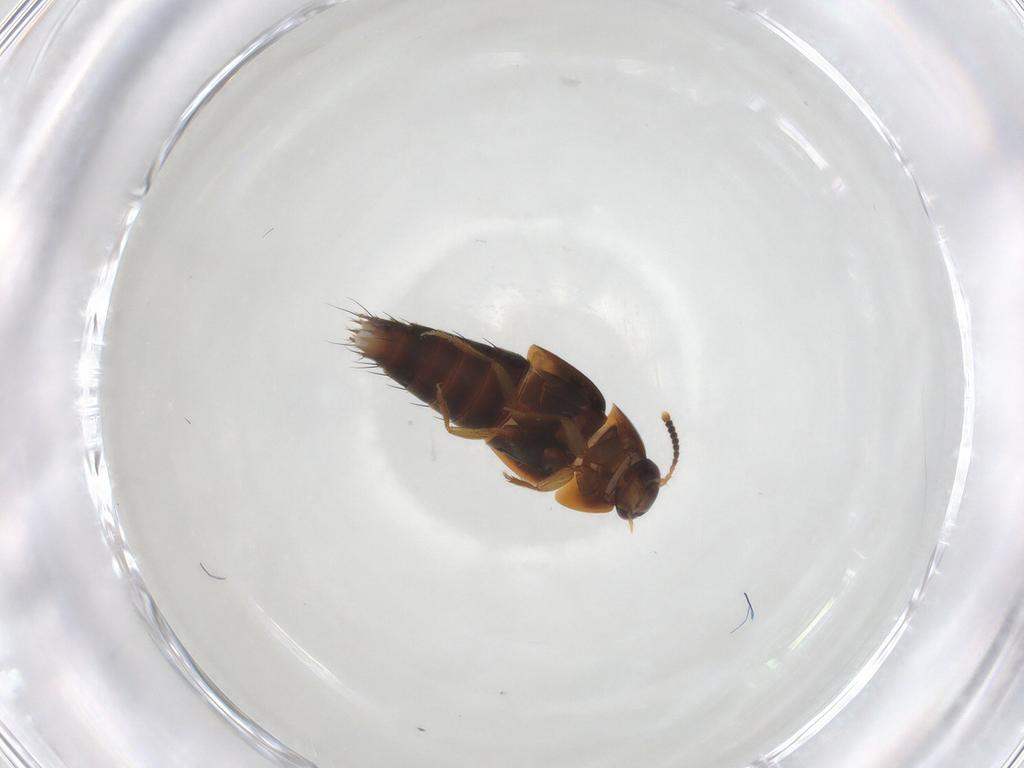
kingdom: Animalia
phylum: Arthropoda
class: Insecta
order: Coleoptera
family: Staphylinidae
